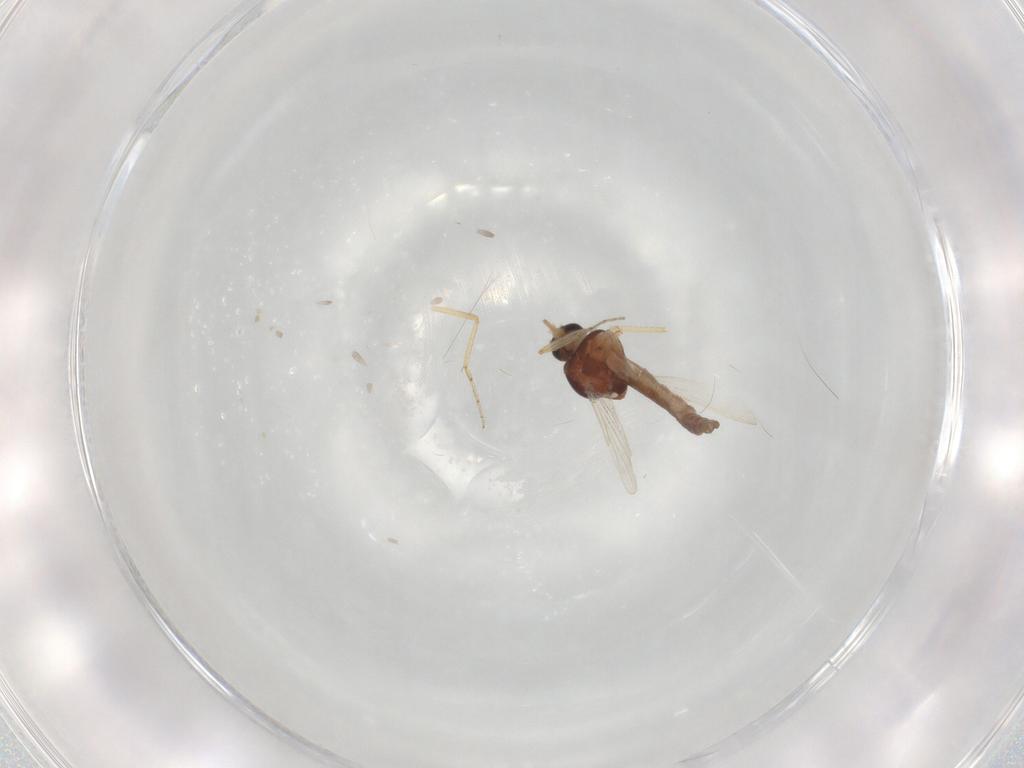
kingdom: Animalia
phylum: Arthropoda
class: Insecta
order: Diptera
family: Ceratopogonidae
